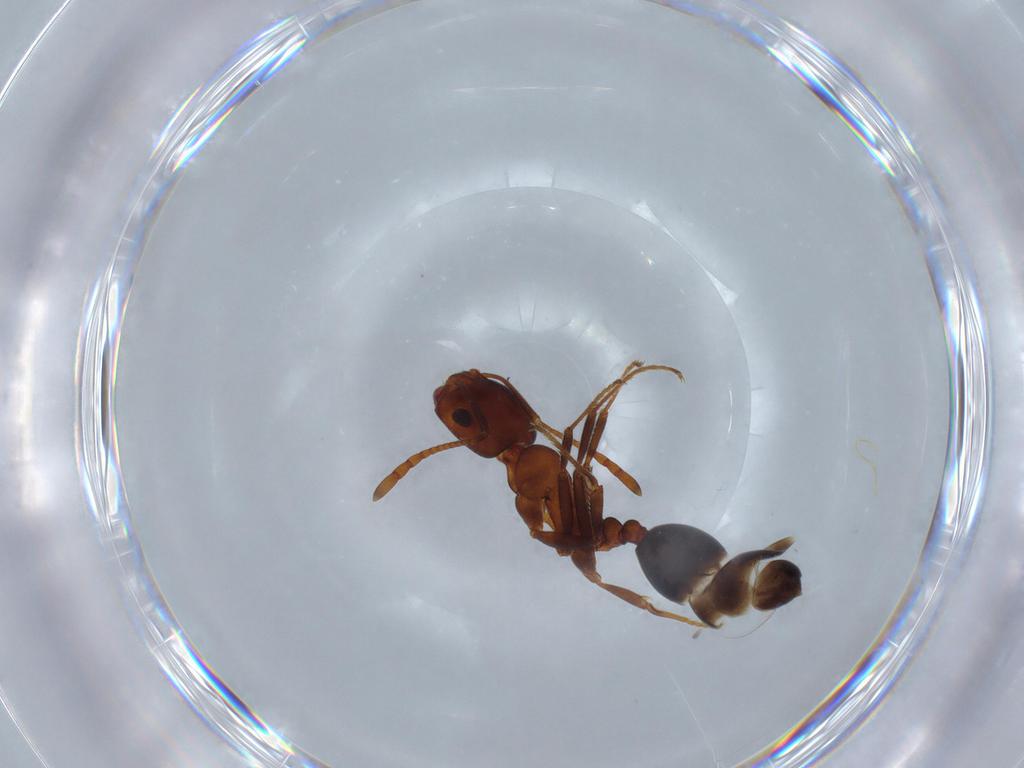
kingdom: Animalia
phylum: Arthropoda
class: Insecta
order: Hymenoptera
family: Formicidae
